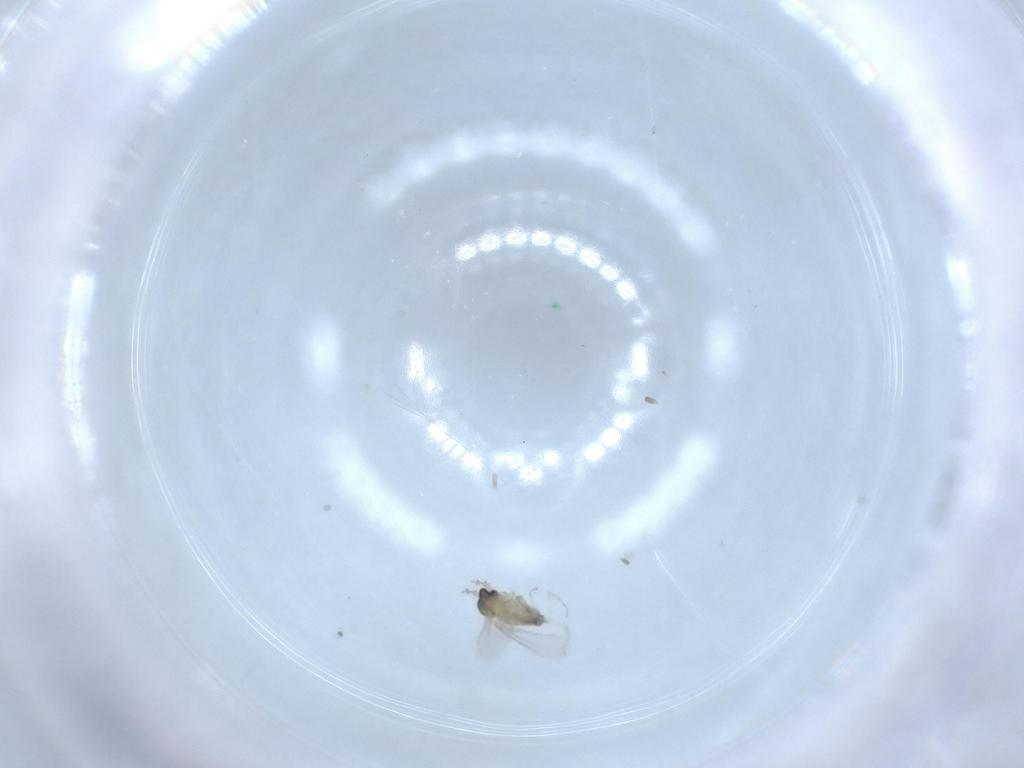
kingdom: Animalia
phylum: Arthropoda
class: Insecta
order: Diptera
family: Cecidomyiidae
